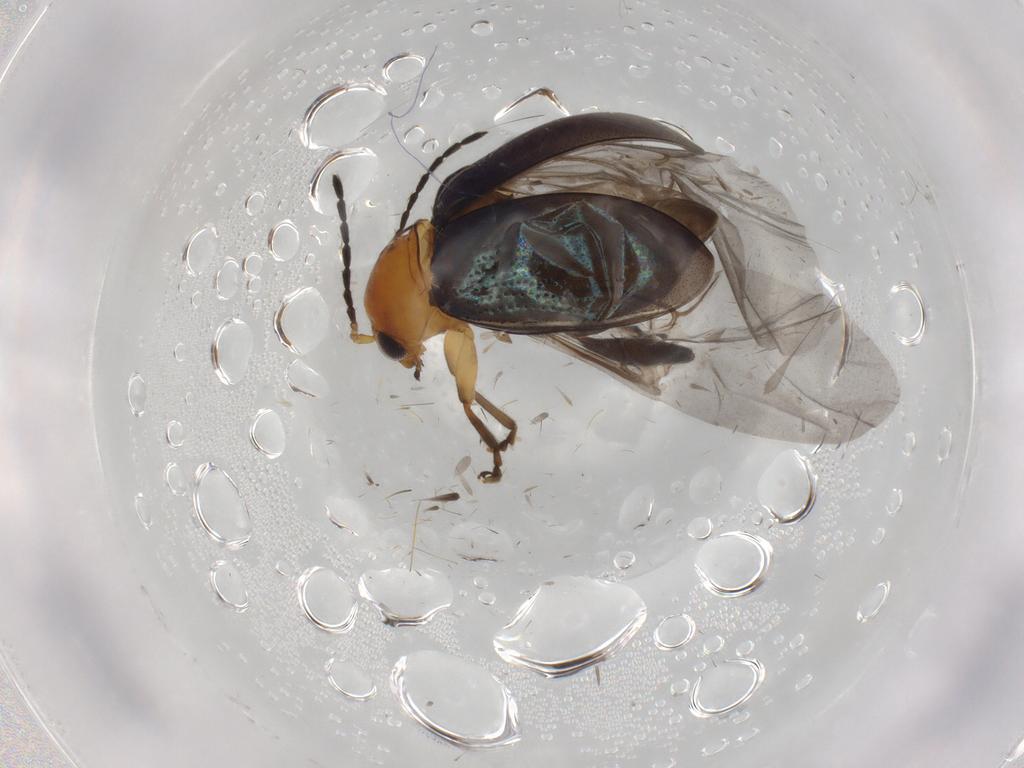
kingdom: Animalia
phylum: Arthropoda
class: Insecta
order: Coleoptera
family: Chrysomelidae
